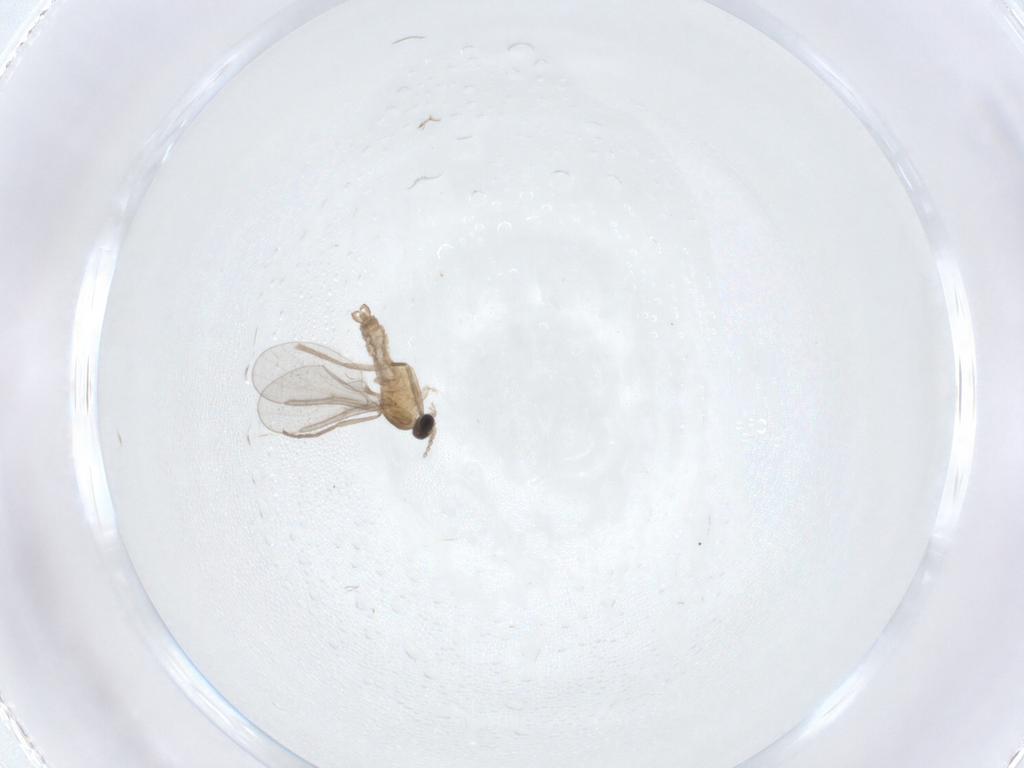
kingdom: Animalia
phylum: Arthropoda
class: Insecta
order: Diptera
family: Cecidomyiidae
